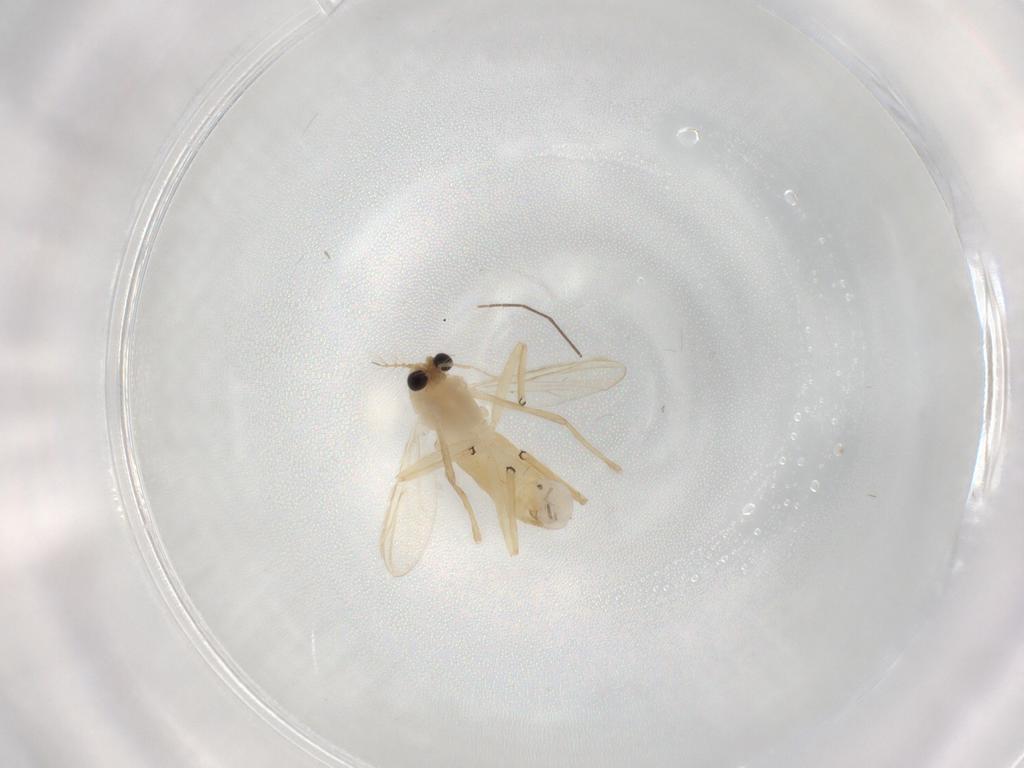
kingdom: Animalia
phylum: Arthropoda
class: Insecta
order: Diptera
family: Chironomidae
